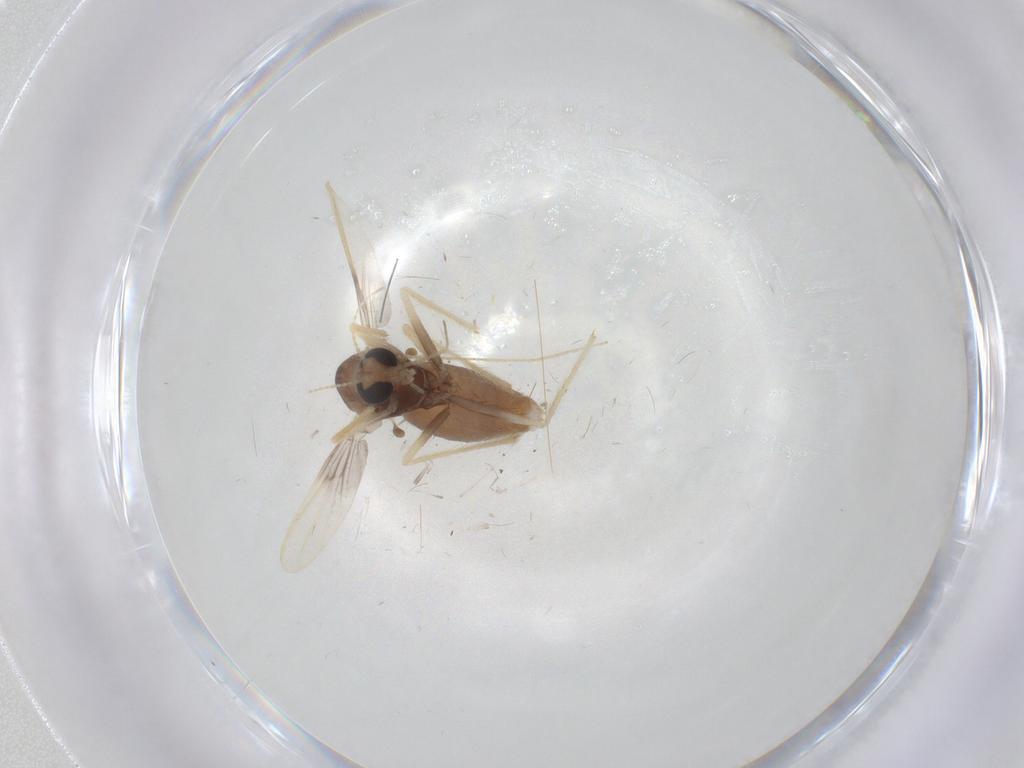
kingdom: Animalia
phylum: Arthropoda
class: Insecta
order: Diptera
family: Chironomidae
